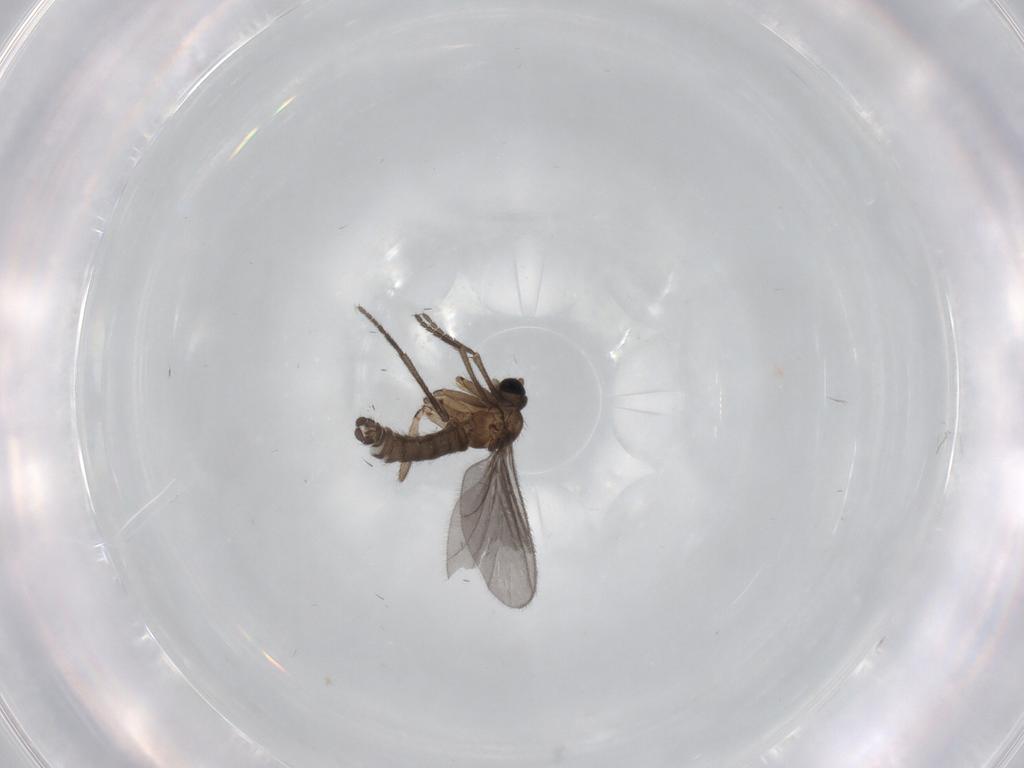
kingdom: Animalia
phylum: Arthropoda
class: Insecta
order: Diptera
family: Sciaridae
